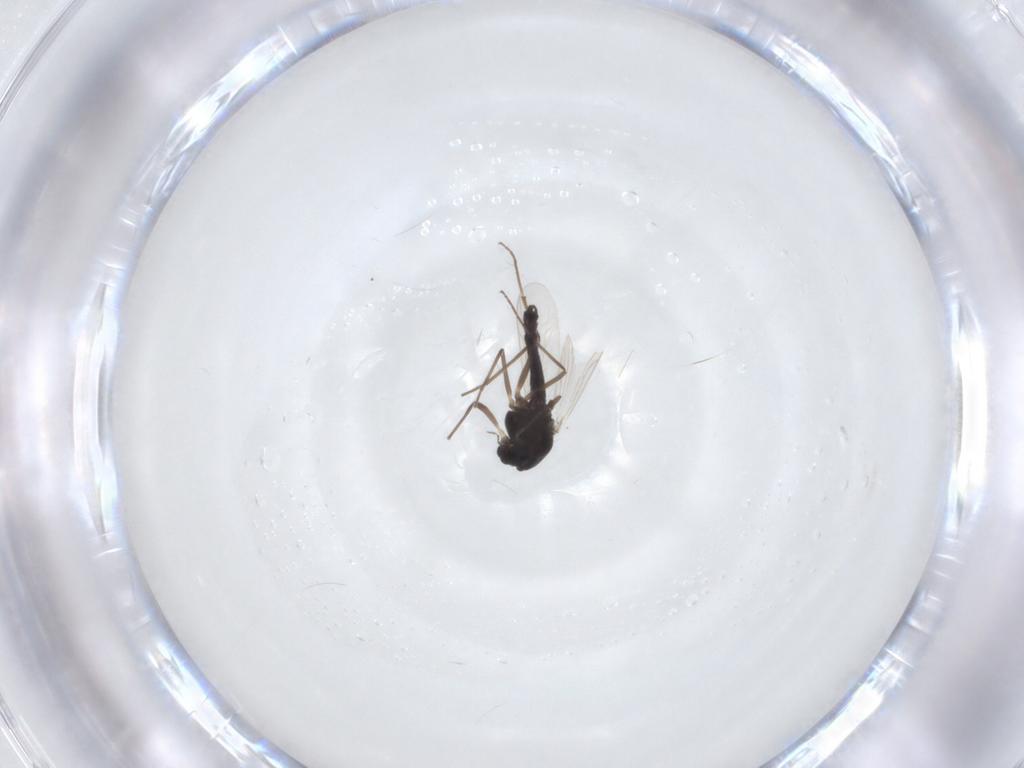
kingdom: Animalia
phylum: Arthropoda
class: Insecta
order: Diptera
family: Chironomidae
